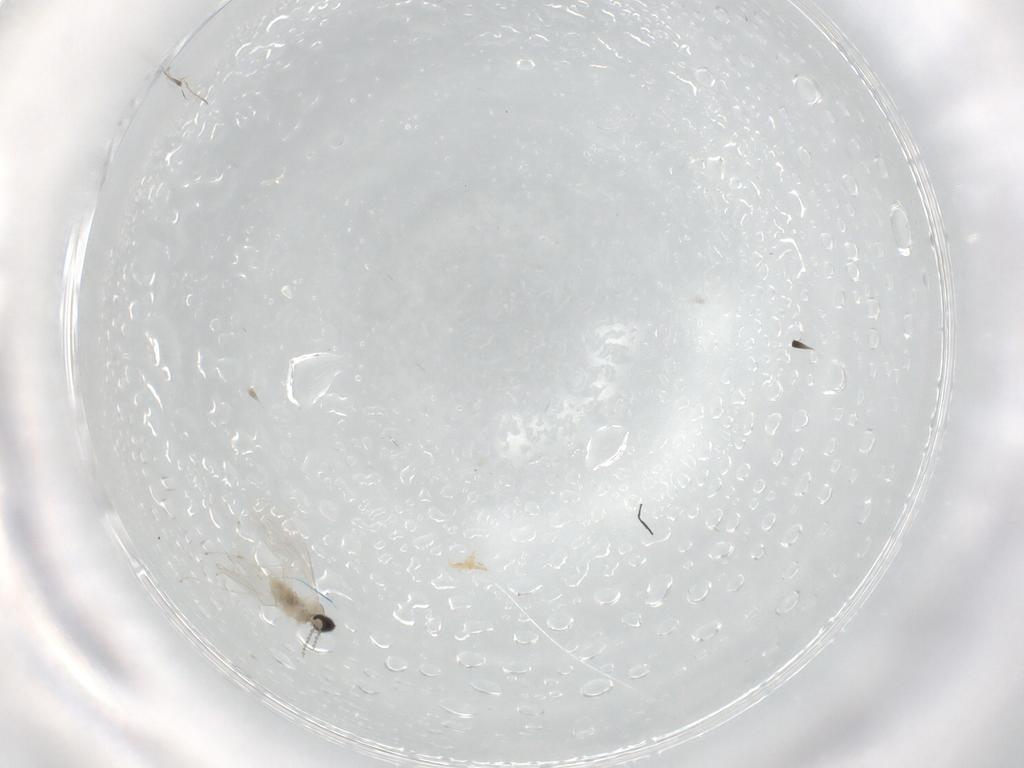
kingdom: Animalia
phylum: Arthropoda
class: Insecta
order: Diptera
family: Cecidomyiidae
